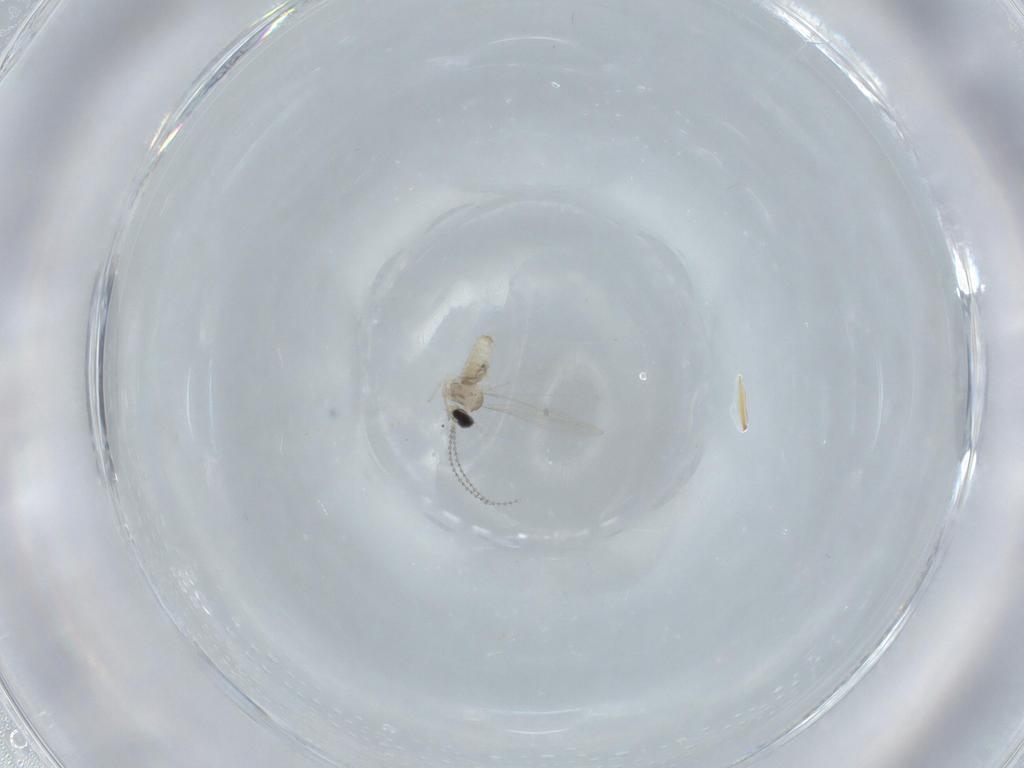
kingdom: Animalia
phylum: Arthropoda
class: Insecta
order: Diptera
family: Cecidomyiidae
